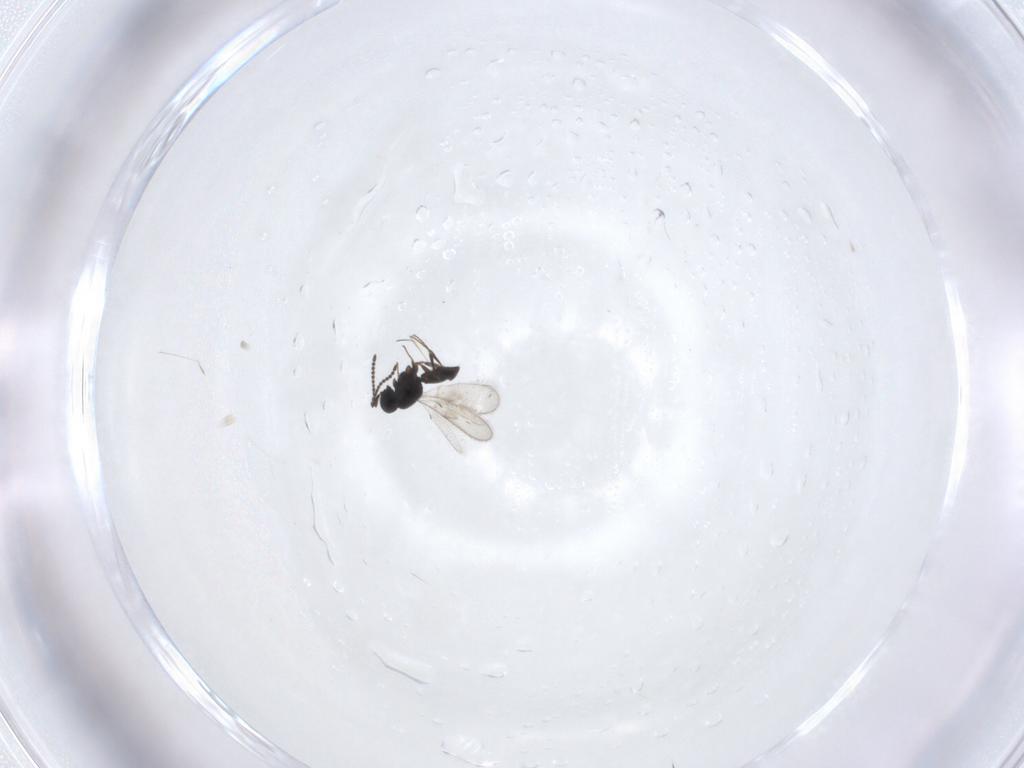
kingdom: Animalia
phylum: Arthropoda
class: Insecta
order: Hymenoptera
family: Scelionidae
